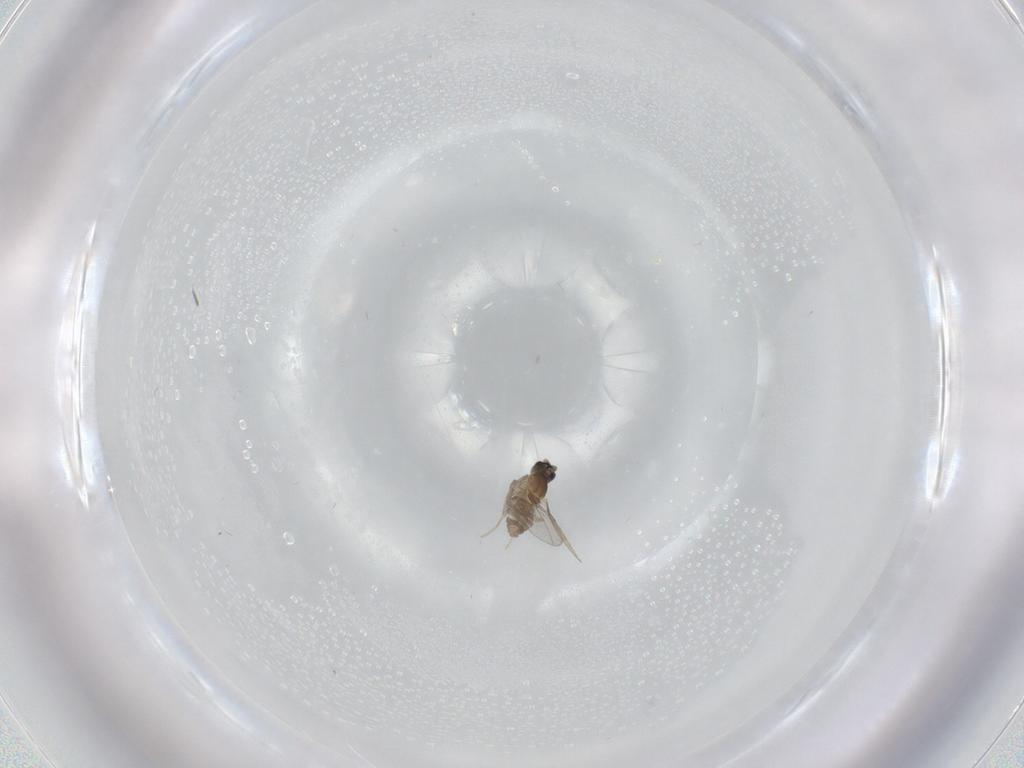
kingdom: Animalia
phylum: Arthropoda
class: Insecta
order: Diptera
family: Cecidomyiidae
